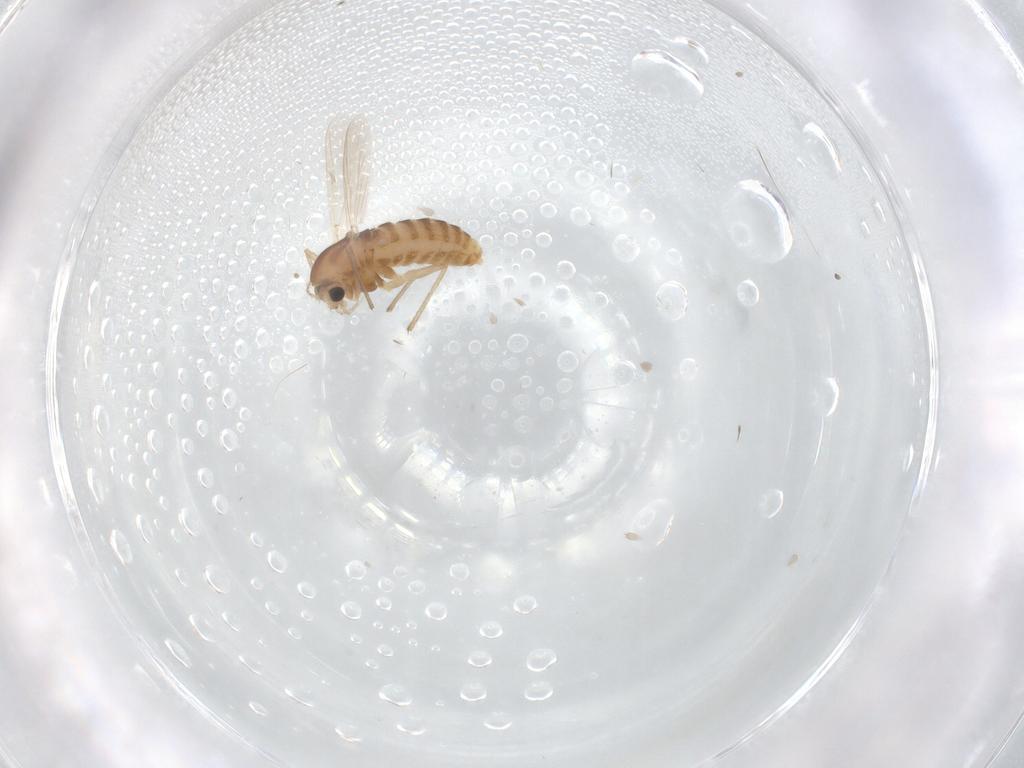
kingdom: Animalia
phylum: Arthropoda
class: Insecta
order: Diptera
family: Chironomidae
